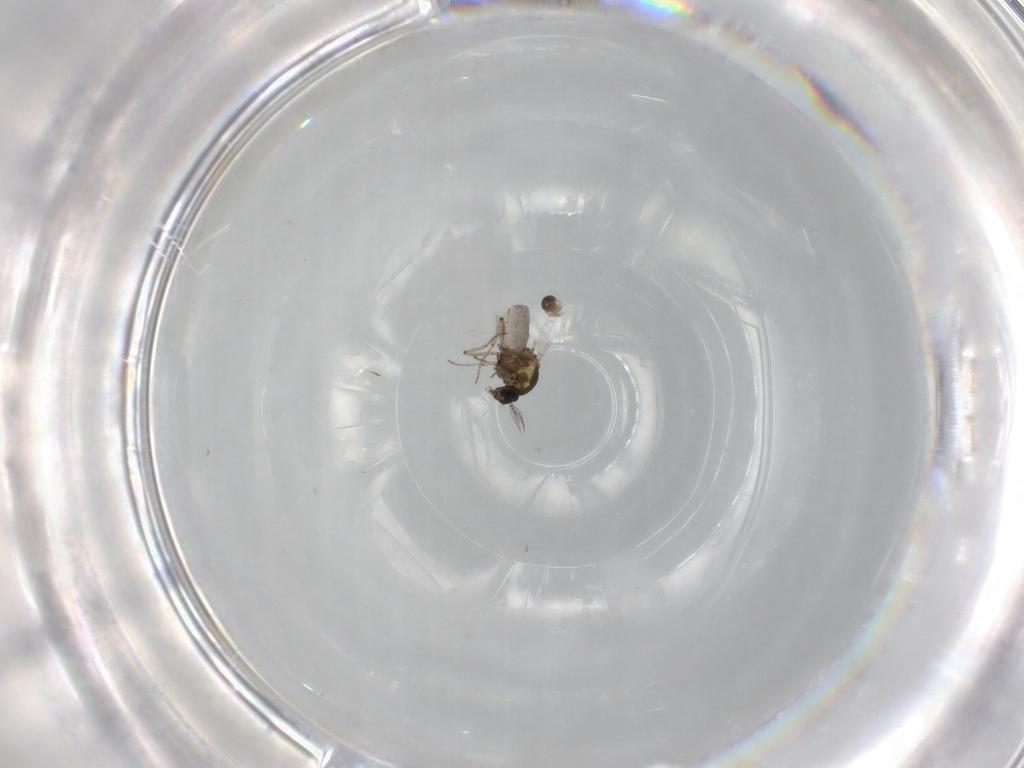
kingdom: Animalia
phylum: Arthropoda
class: Insecta
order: Diptera
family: Ceratopogonidae
